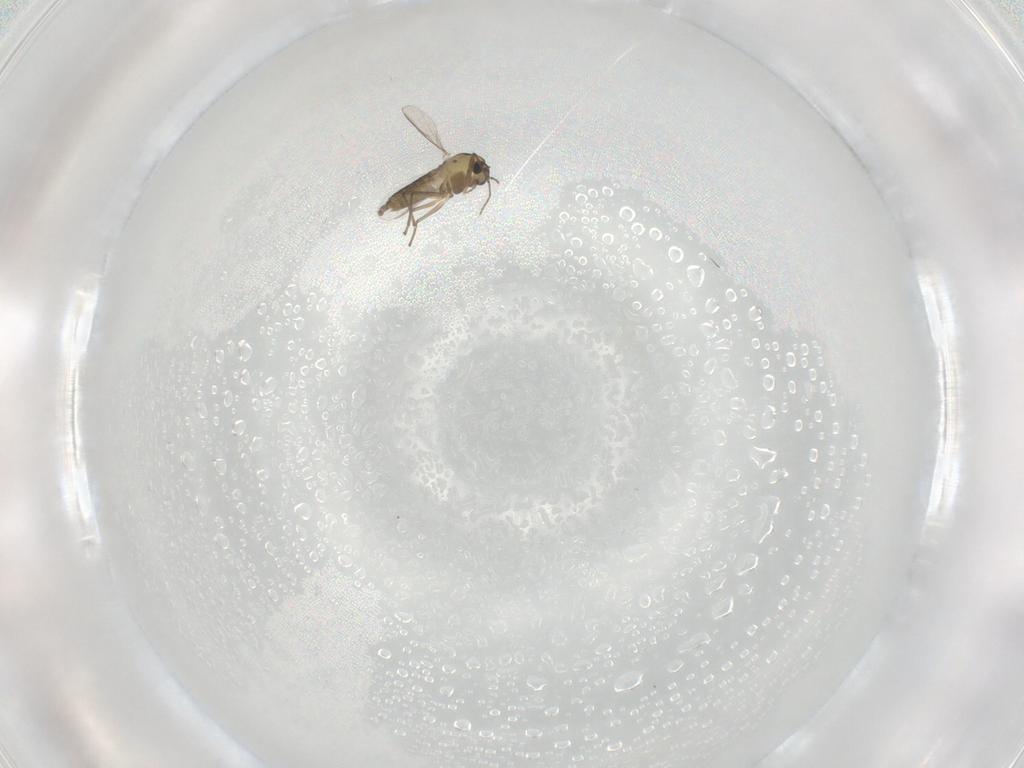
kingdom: Animalia
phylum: Arthropoda
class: Insecta
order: Diptera
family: Chironomidae
